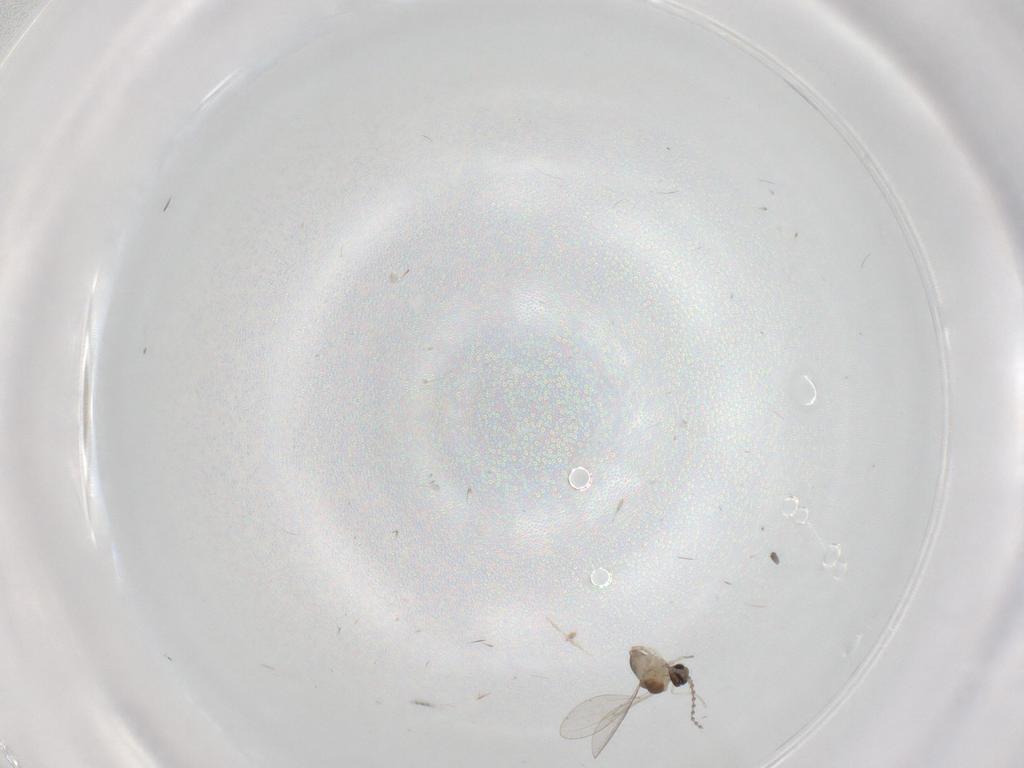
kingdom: Animalia
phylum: Arthropoda
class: Insecta
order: Diptera
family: Cecidomyiidae
